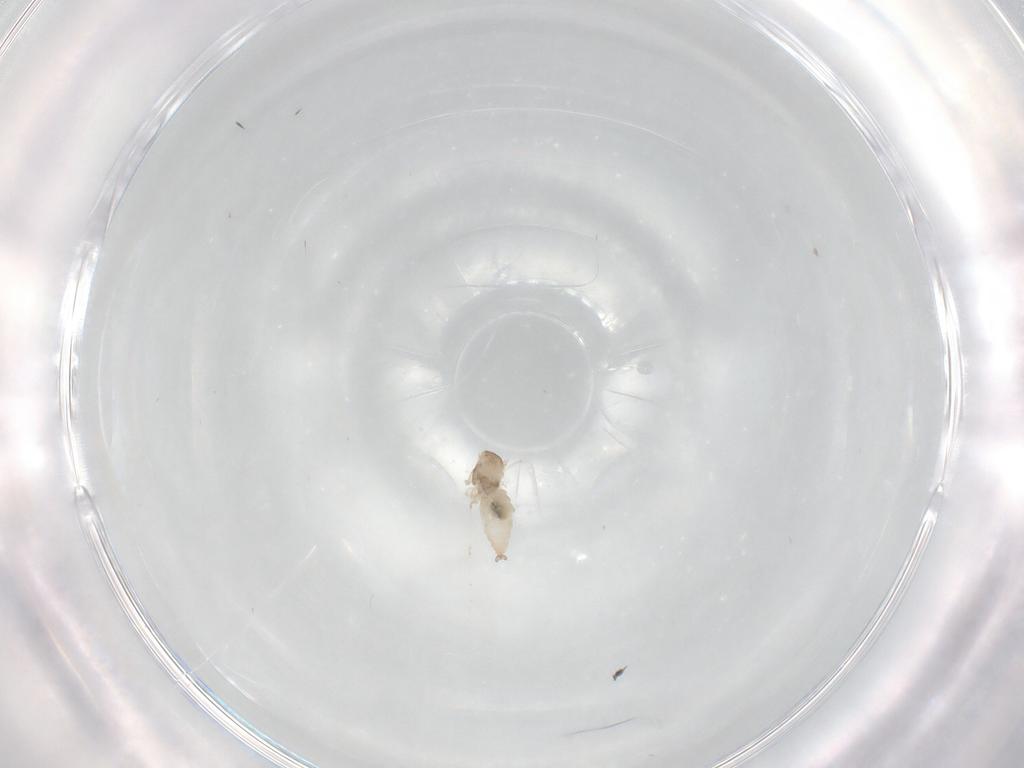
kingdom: Animalia
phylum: Arthropoda
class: Insecta
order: Diptera
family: Cecidomyiidae
